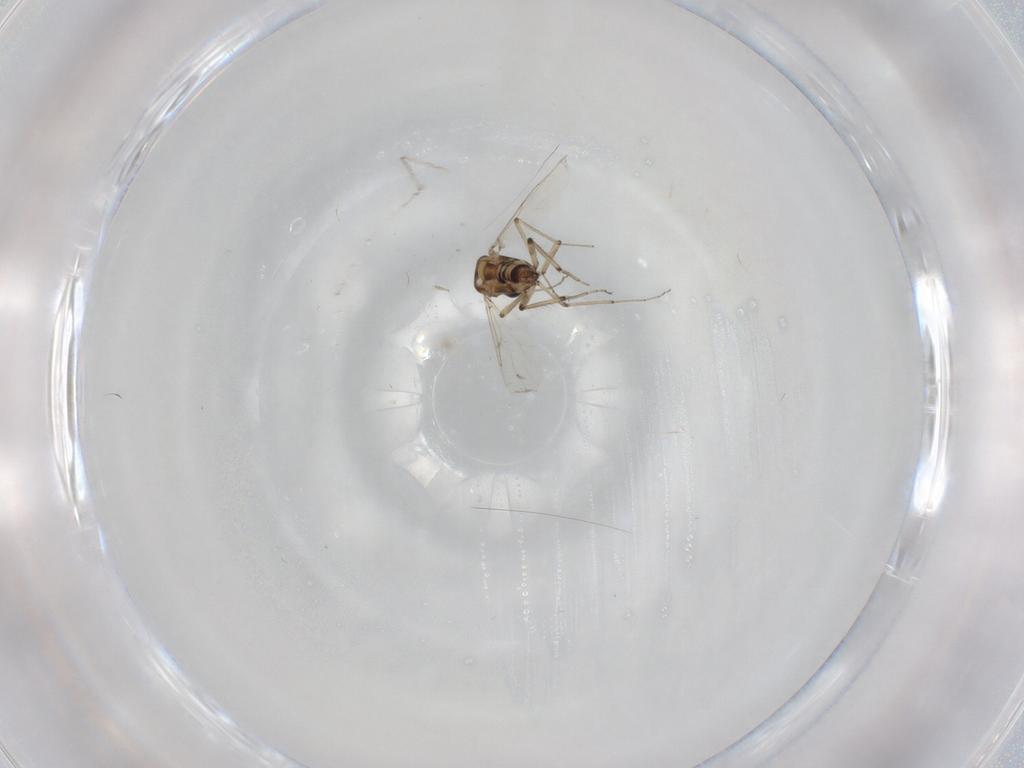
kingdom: Animalia
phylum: Arthropoda
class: Insecta
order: Diptera
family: Ceratopogonidae
